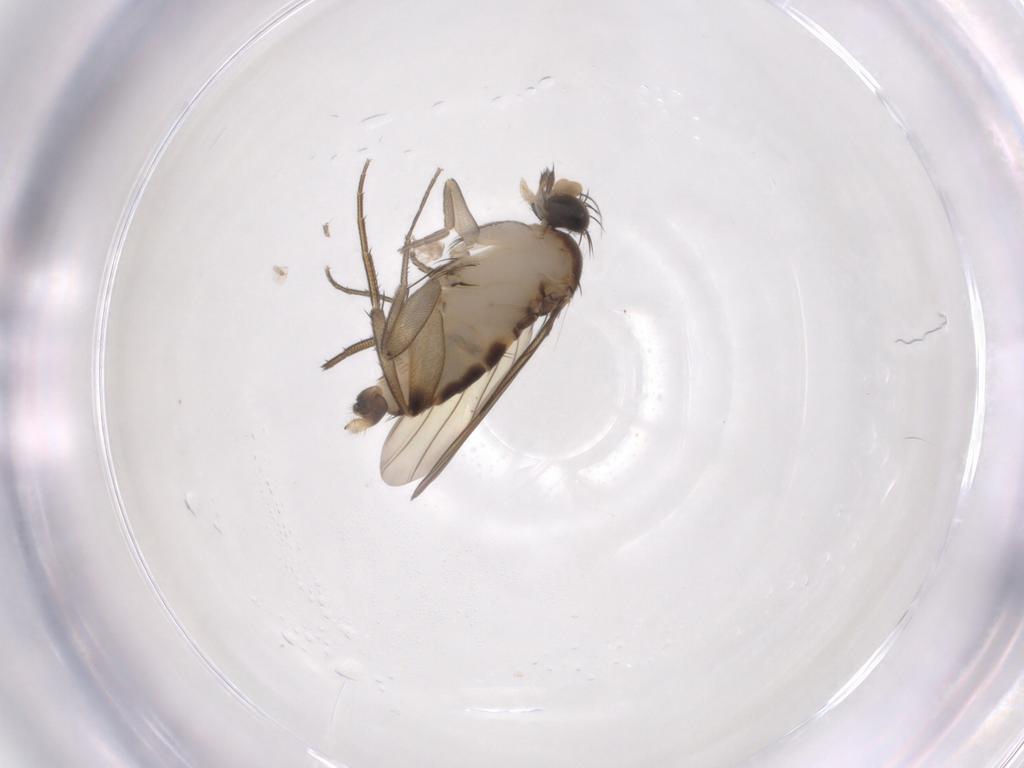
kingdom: Animalia
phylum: Arthropoda
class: Insecta
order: Diptera
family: Phoridae
